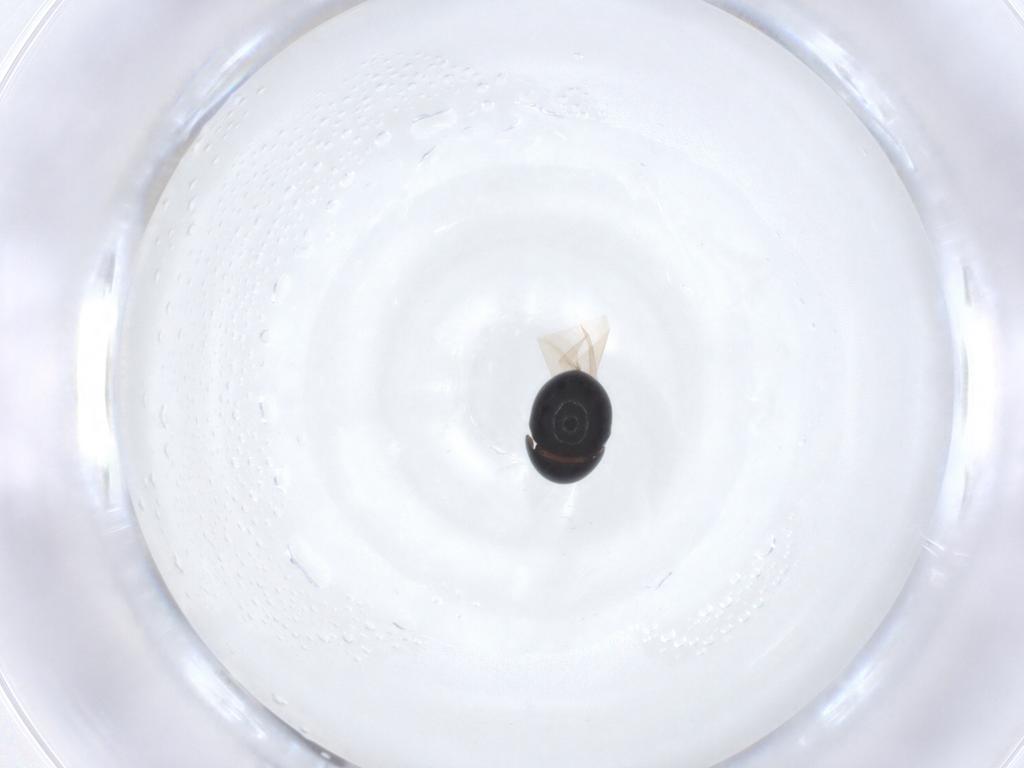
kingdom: Animalia
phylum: Arthropoda
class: Insecta
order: Coleoptera
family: Cybocephalidae
